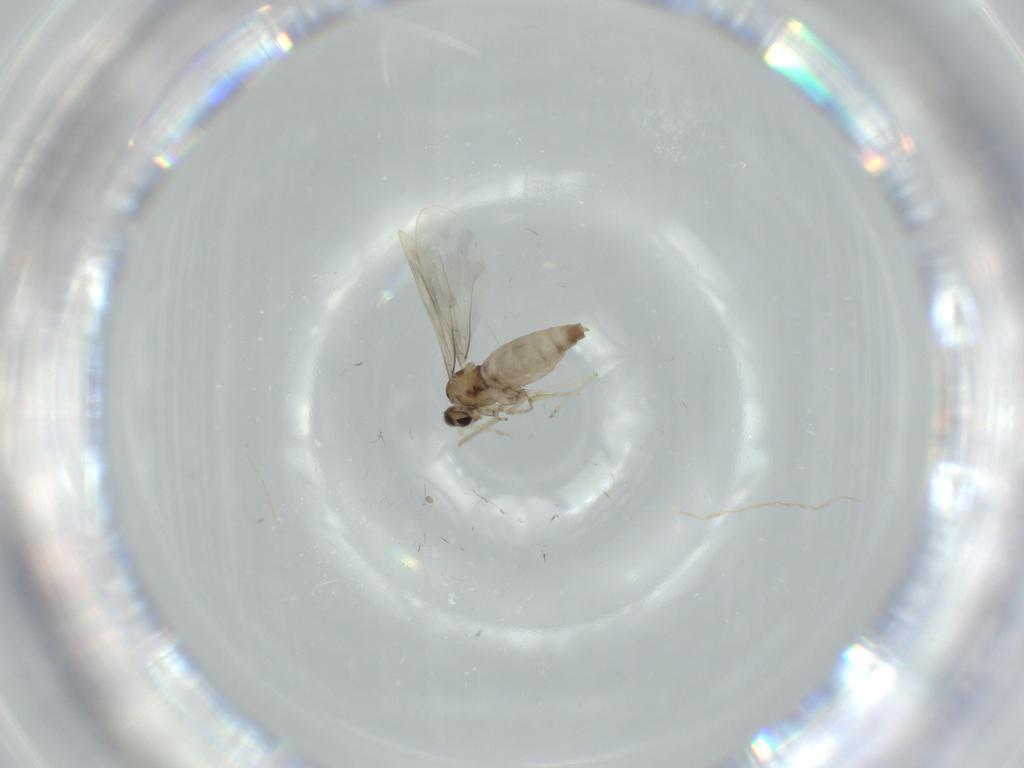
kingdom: Animalia
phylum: Arthropoda
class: Insecta
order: Diptera
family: Cecidomyiidae
